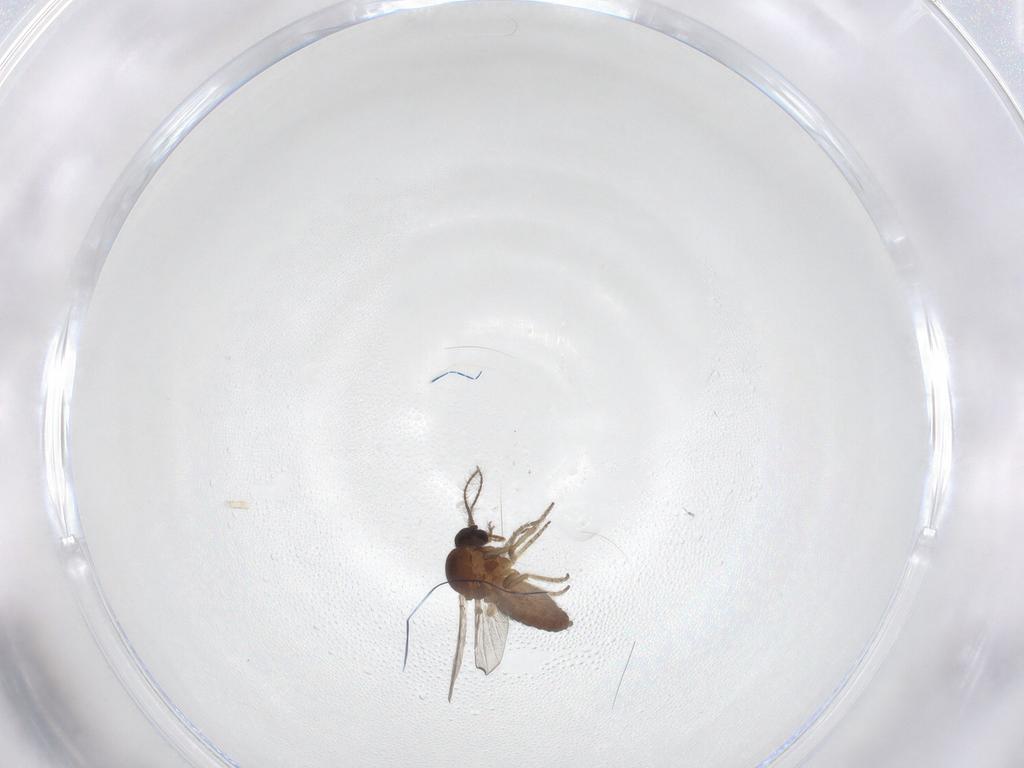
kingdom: Animalia
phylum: Arthropoda
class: Insecta
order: Diptera
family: Ceratopogonidae
